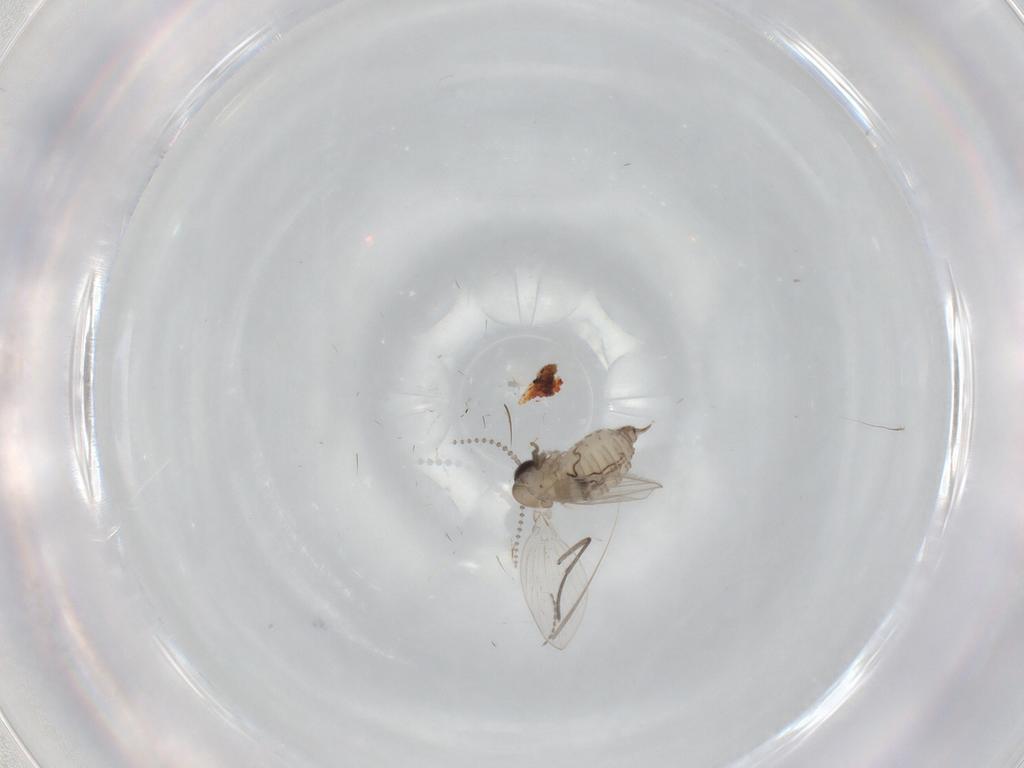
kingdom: Animalia
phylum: Arthropoda
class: Insecta
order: Diptera
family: Psychodidae
